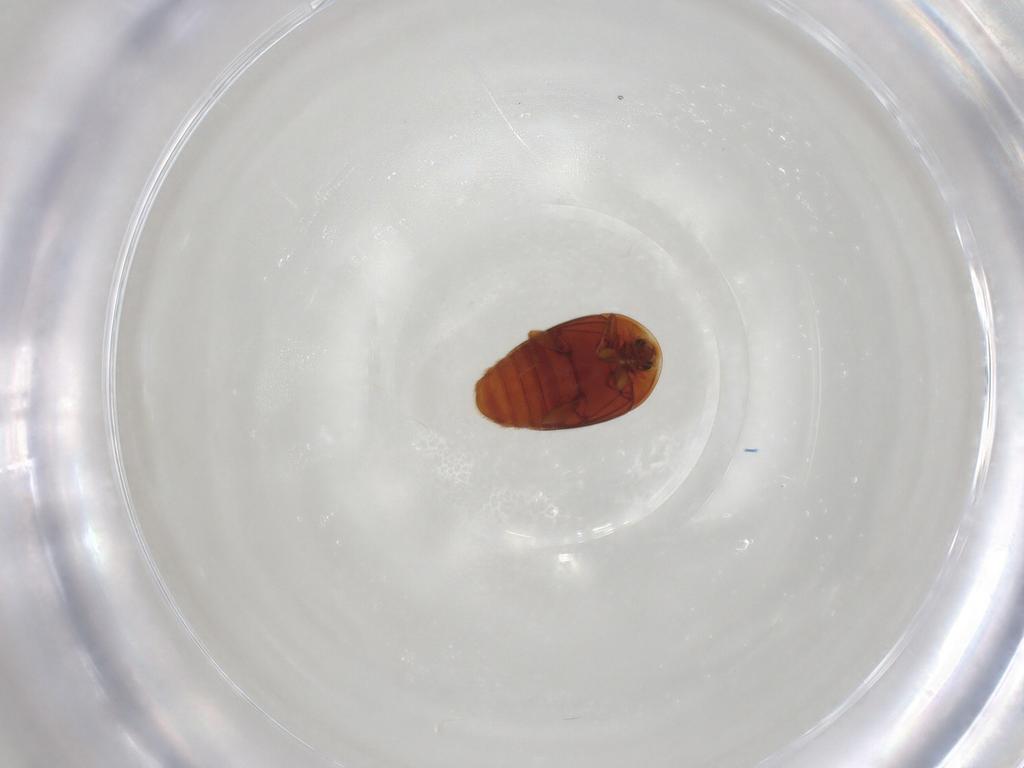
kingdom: Animalia
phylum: Arthropoda
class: Insecta
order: Coleoptera
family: Corylophidae
